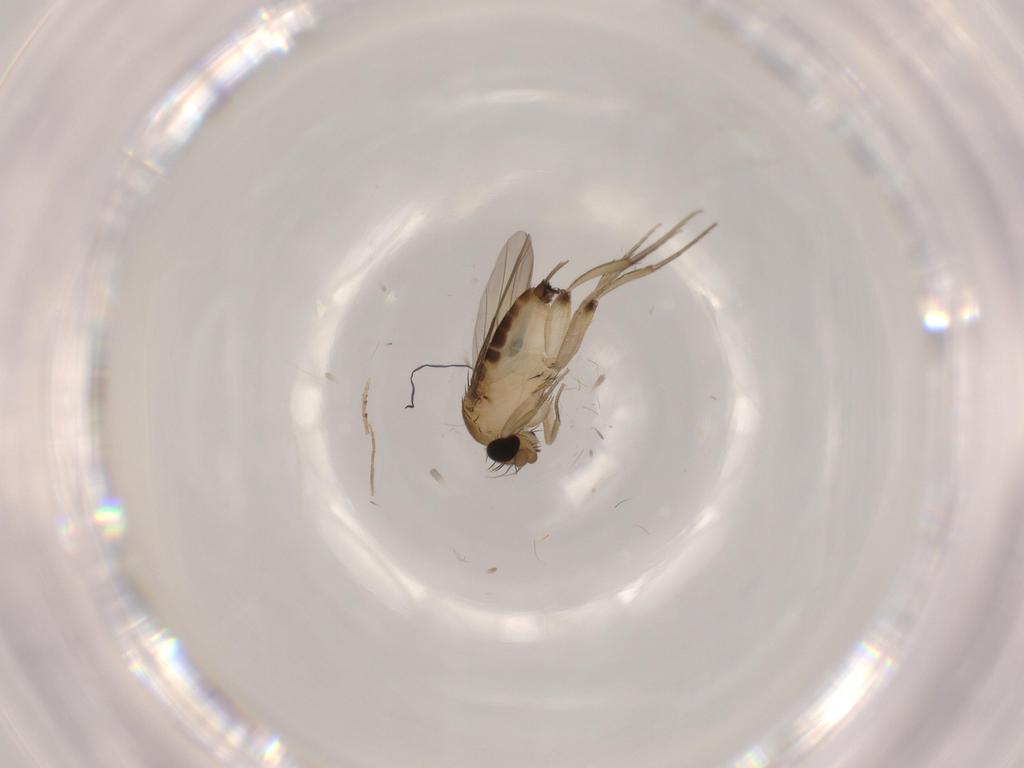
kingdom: Animalia
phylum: Arthropoda
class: Insecta
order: Diptera
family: Phoridae
